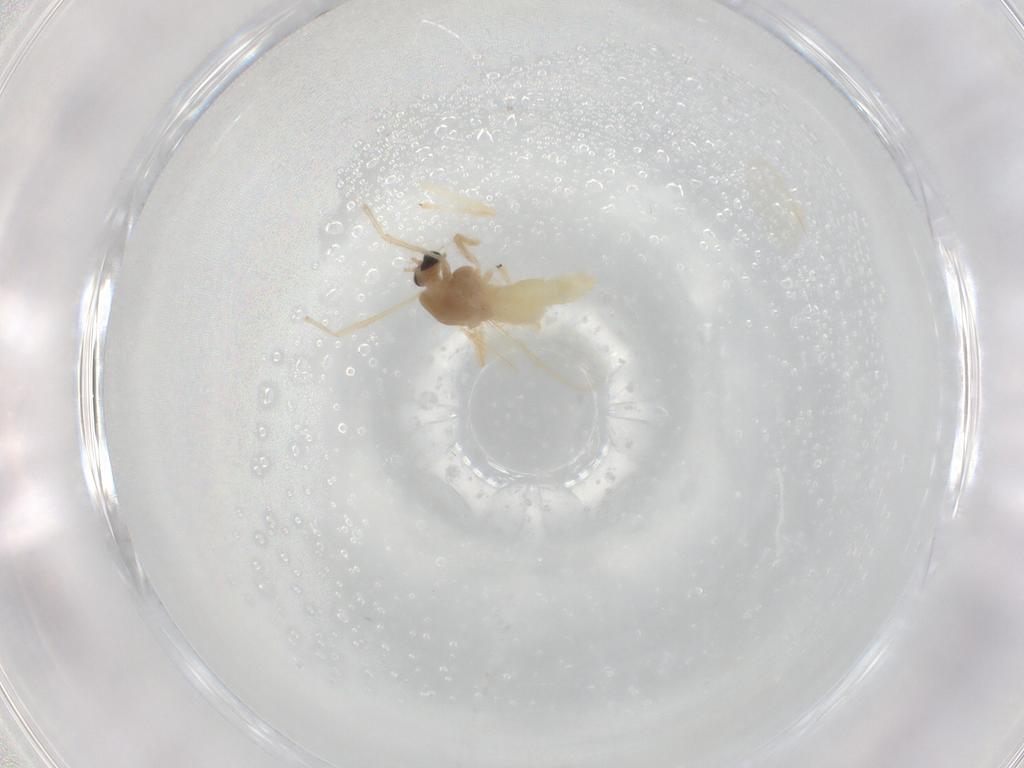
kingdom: Animalia
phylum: Arthropoda
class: Insecta
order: Diptera
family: Chironomidae
